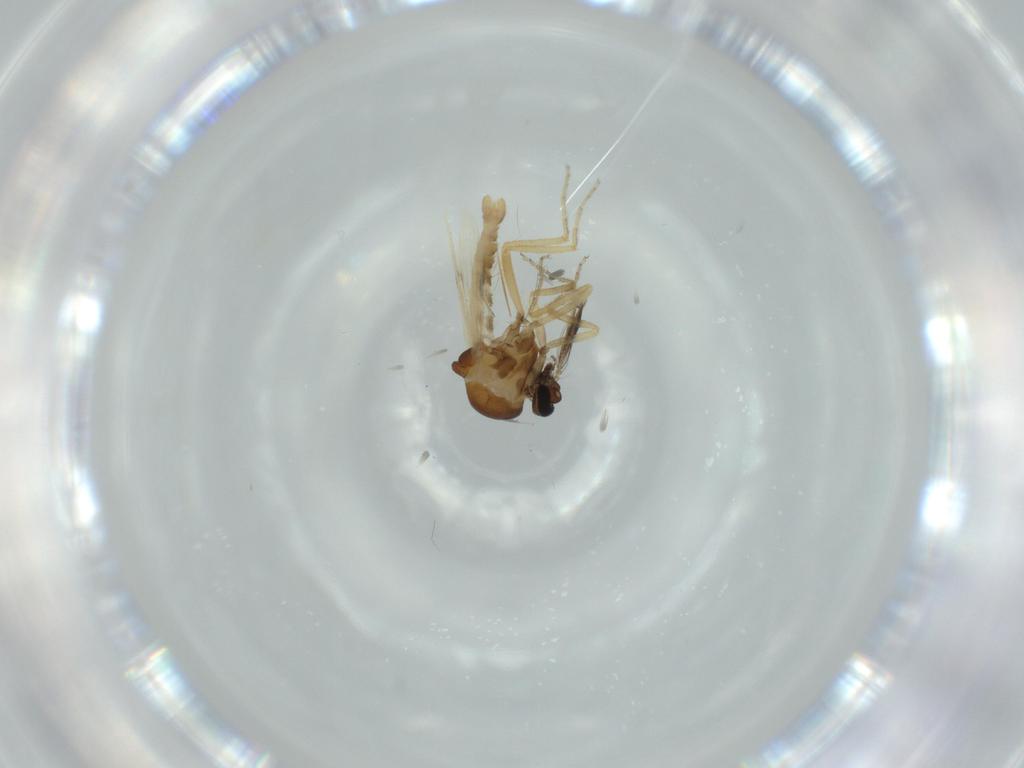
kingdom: Animalia
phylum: Arthropoda
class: Insecta
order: Diptera
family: Ceratopogonidae
